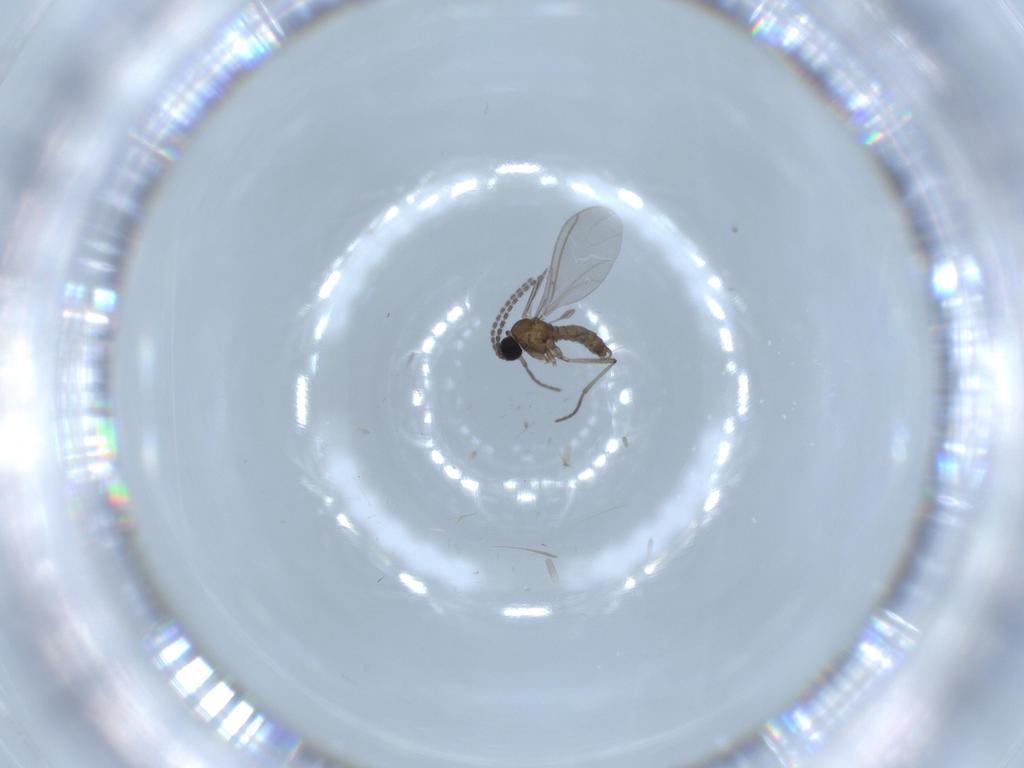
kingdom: Animalia
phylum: Arthropoda
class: Insecta
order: Diptera
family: Sciaridae
